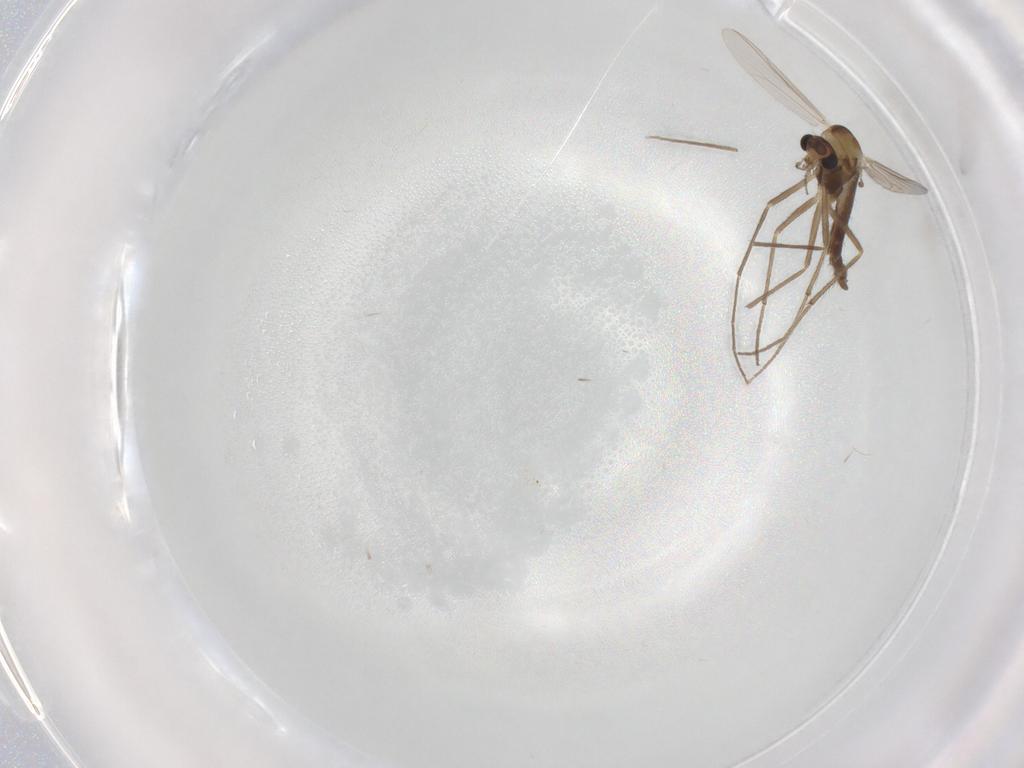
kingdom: Animalia
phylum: Arthropoda
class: Insecta
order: Diptera
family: Chironomidae
